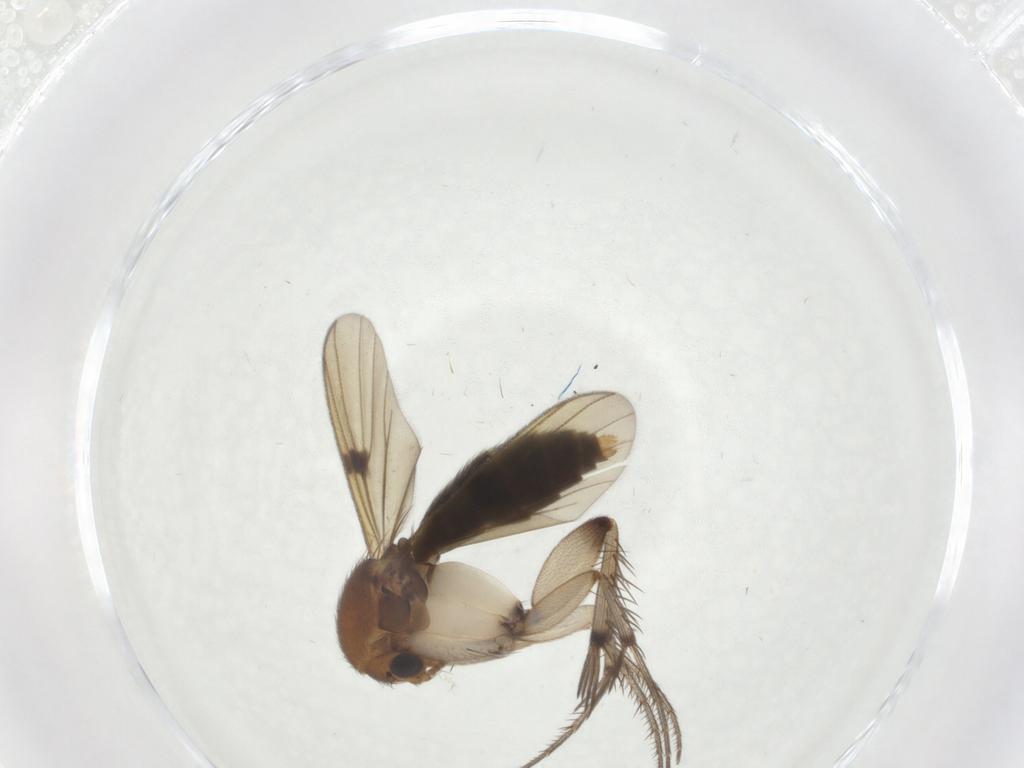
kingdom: Animalia
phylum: Arthropoda
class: Insecta
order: Diptera
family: Mycetophilidae
